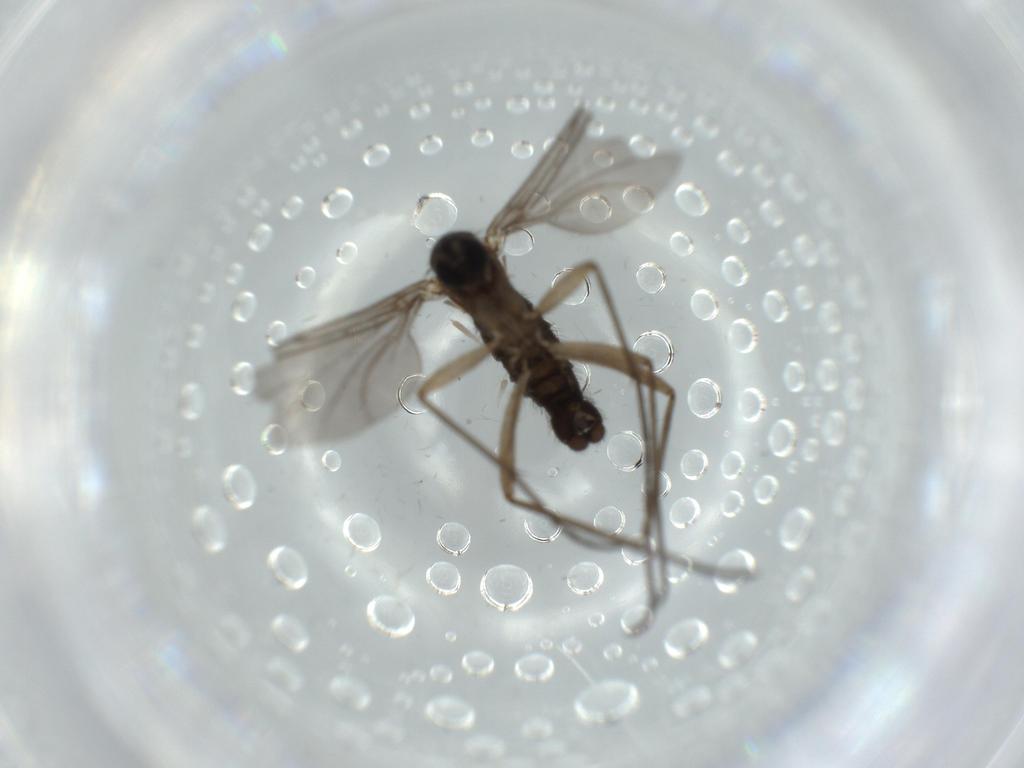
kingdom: Animalia
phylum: Arthropoda
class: Insecta
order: Diptera
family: Sciaridae
